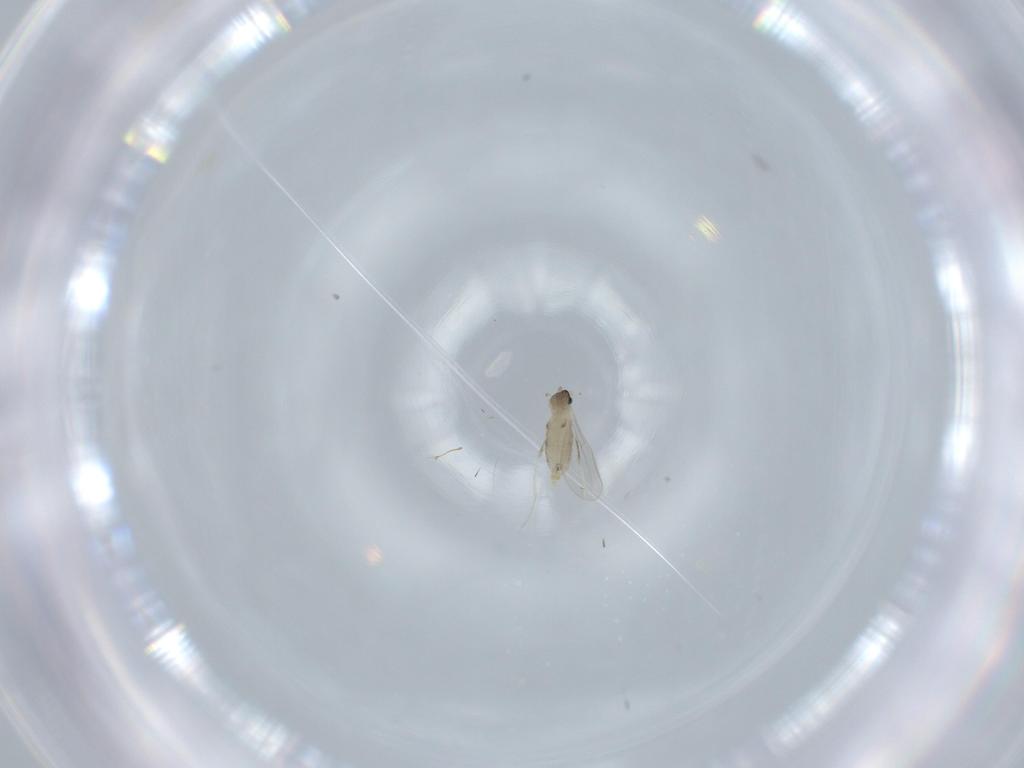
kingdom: Animalia
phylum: Arthropoda
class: Insecta
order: Diptera
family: Cecidomyiidae
